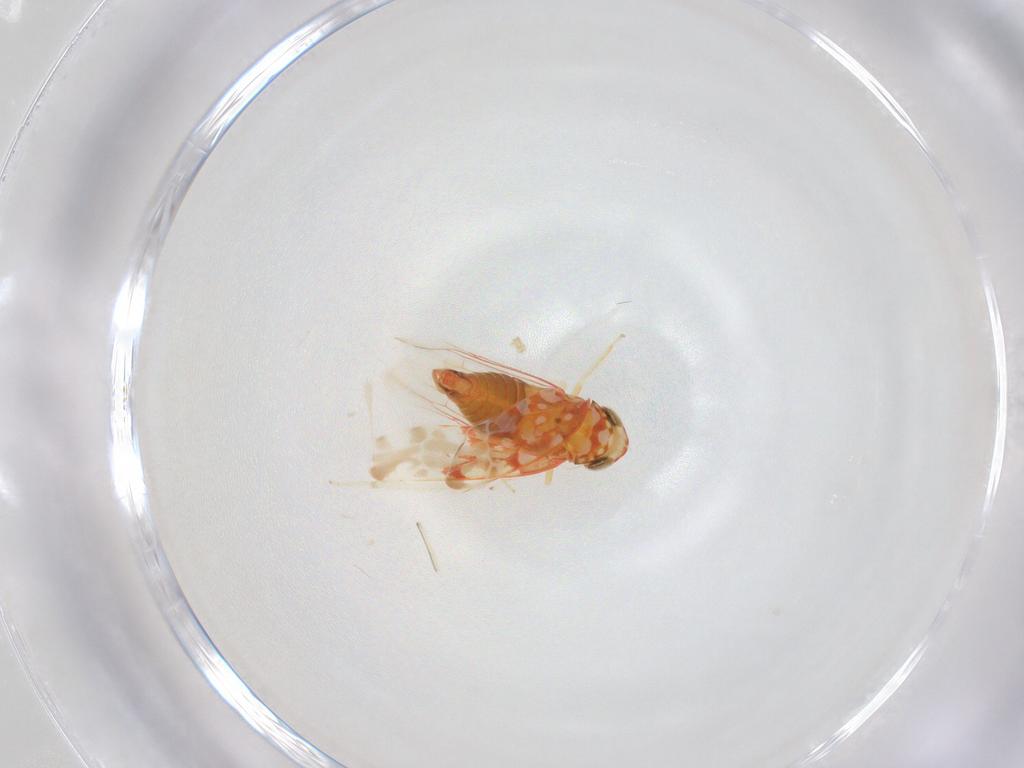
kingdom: Animalia
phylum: Arthropoda
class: Insecta
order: Hemiptera
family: Cicadellidae
